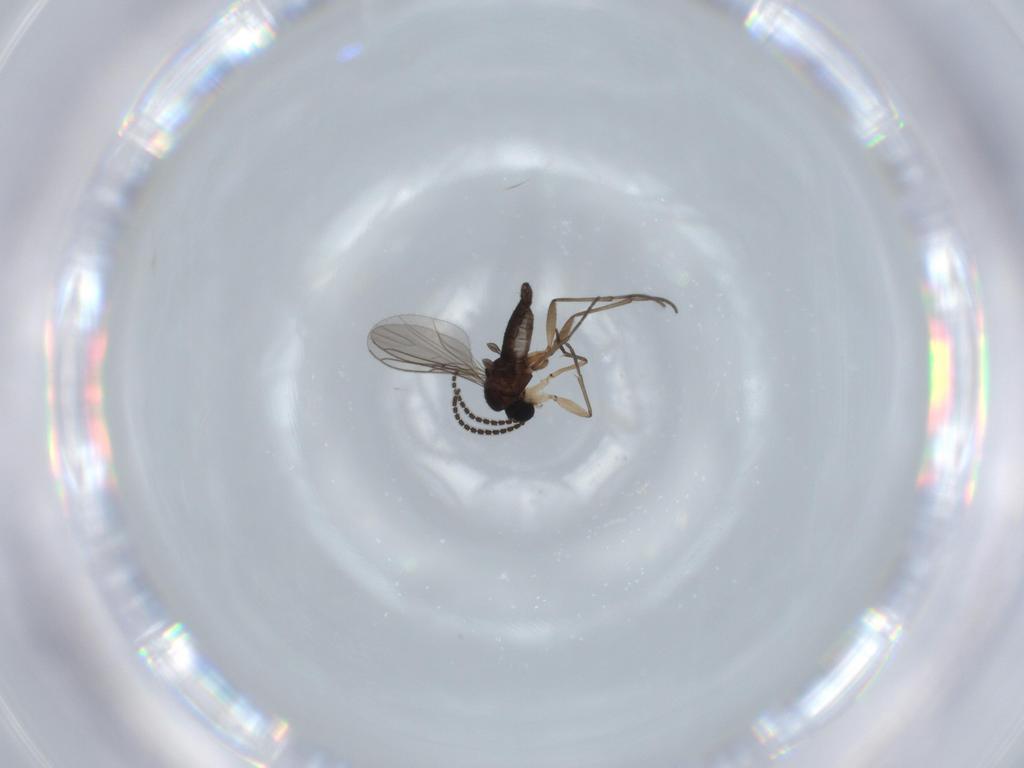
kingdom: Animalia
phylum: Arthropoda
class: Insecta
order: Diptera
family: Sciaridae
